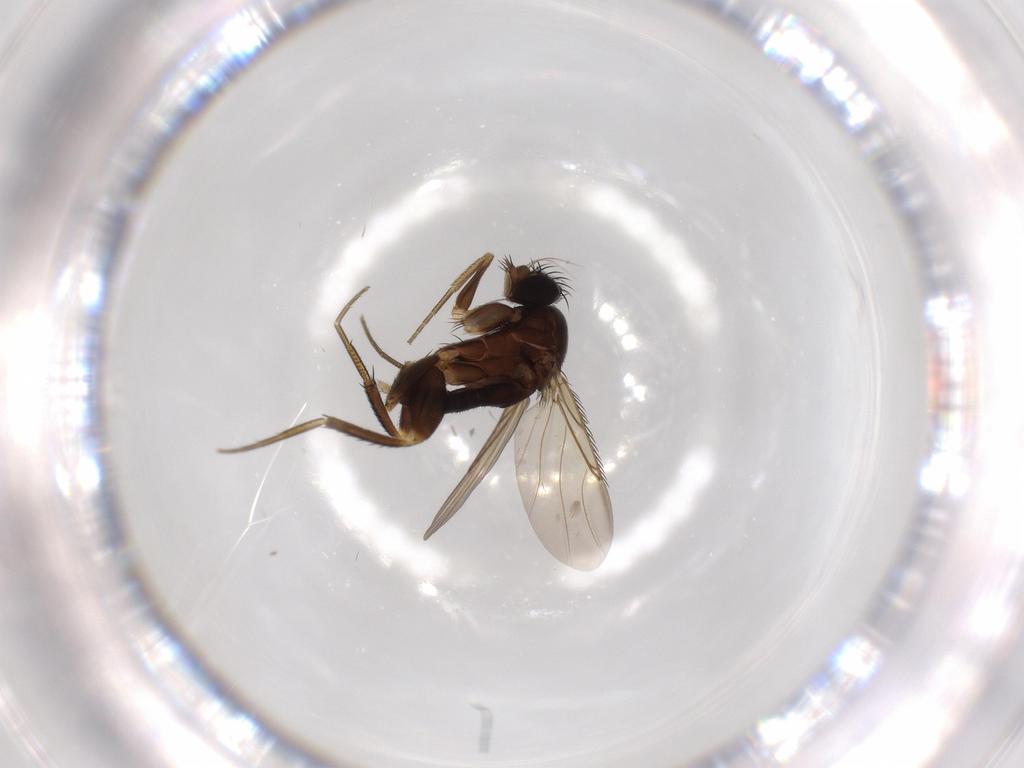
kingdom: Animalia
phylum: Arthropoda
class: Insecta
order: Diptera
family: Phoridae
